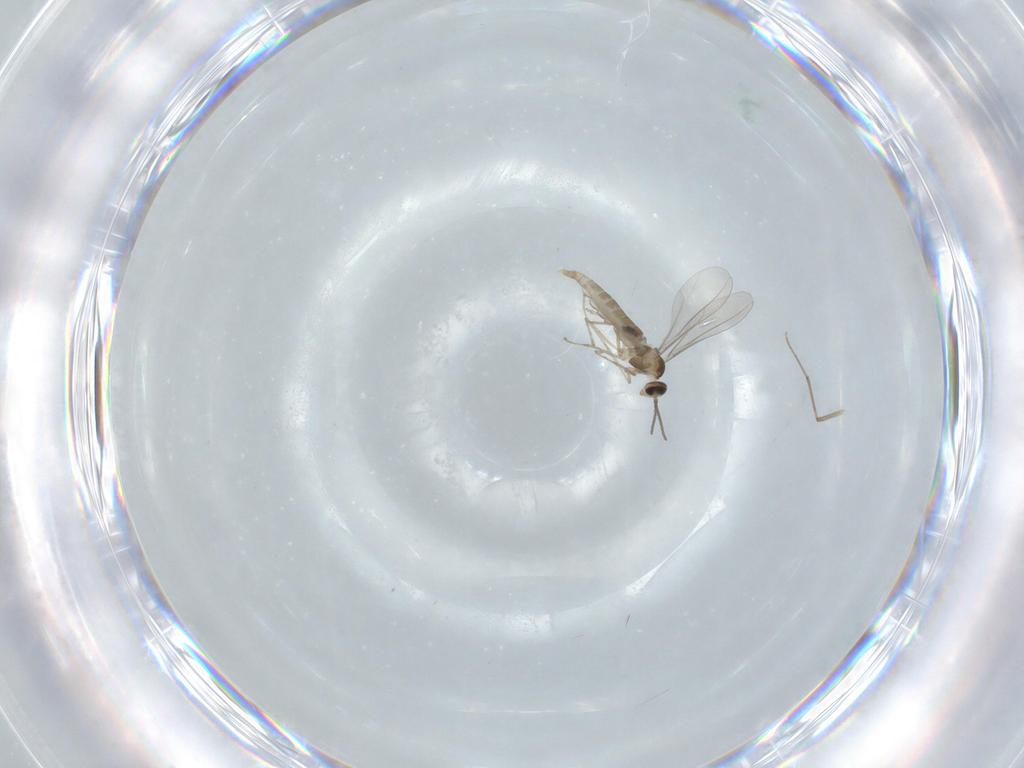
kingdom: Animalia
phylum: Arthropoda
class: Insecta
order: Diptera
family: Chironomidae
